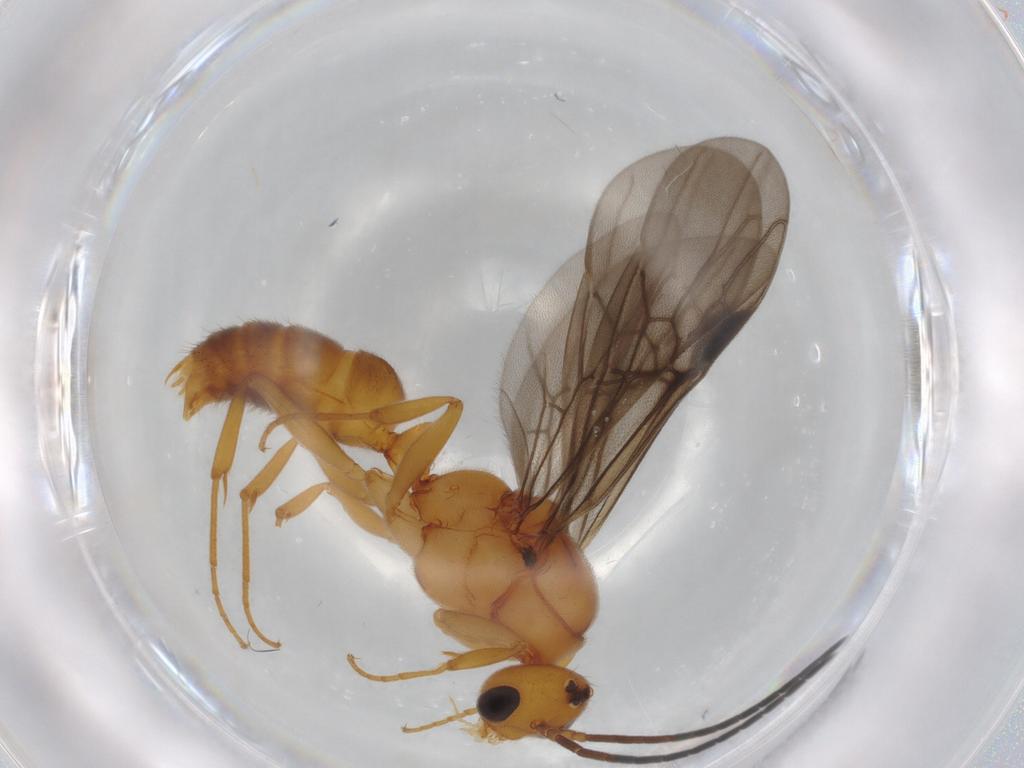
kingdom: Animalia
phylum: Arthropoda
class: Insecta
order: Hymenoptera
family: Formicidae
